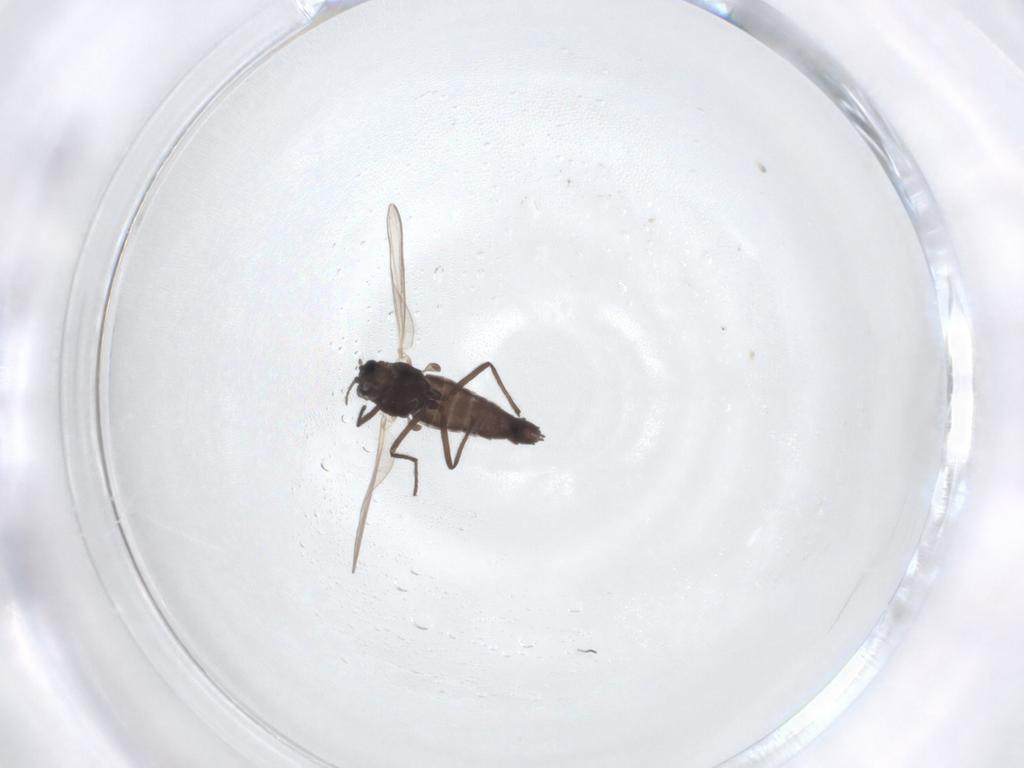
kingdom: Animalia
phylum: Arthropoda
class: Insecta
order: Diptera
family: Chironomidae
